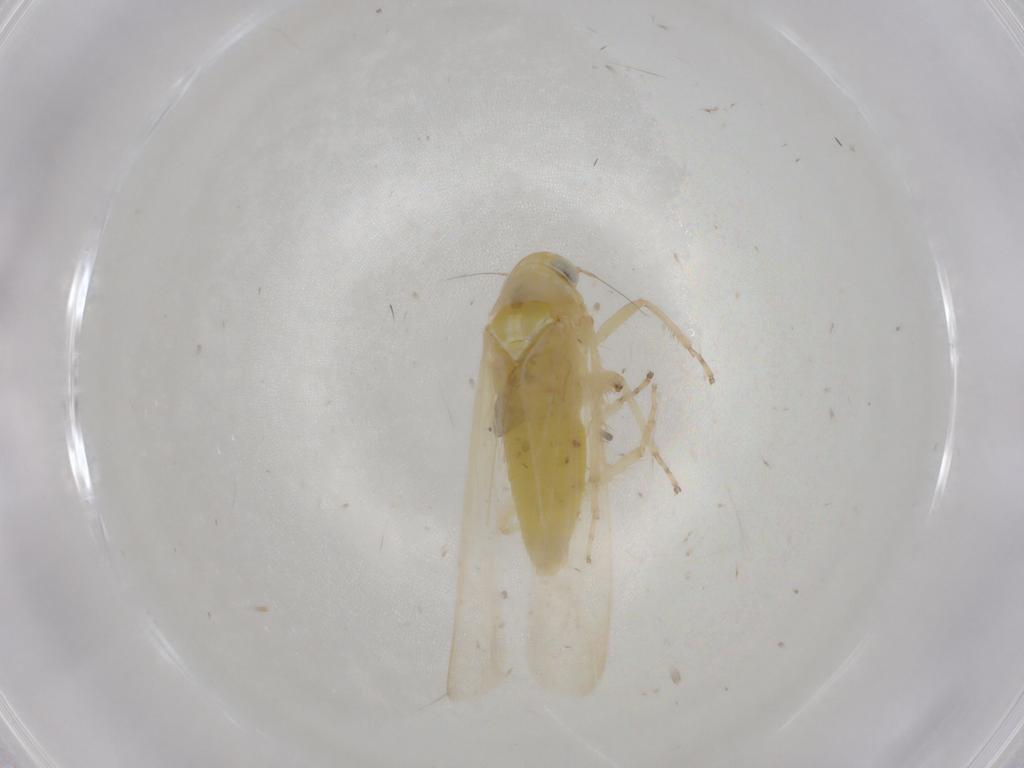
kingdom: Animalia
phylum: Arthropoda
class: Insecta
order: Hemiptera
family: Cicadellidae
